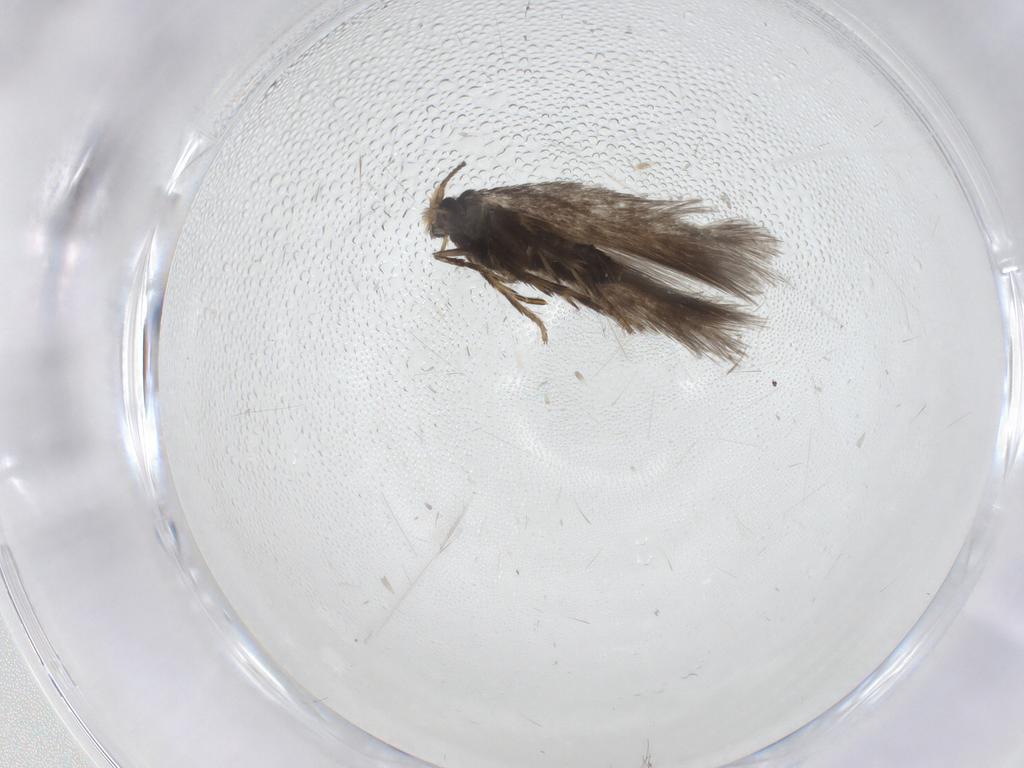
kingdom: Animalia
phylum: Arthropoda
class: Insecta
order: Lepidoptera
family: Nepticulidae
